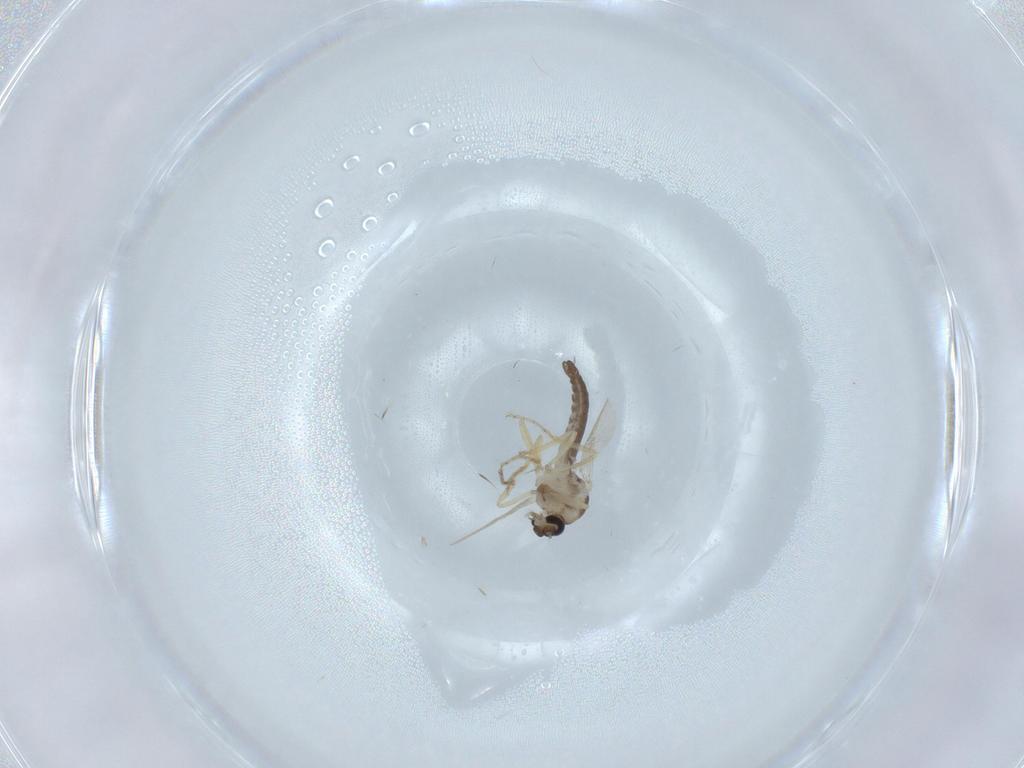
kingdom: Animalia
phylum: Arthropoda
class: Insecta
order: Diptera
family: Ceratopogonidae
